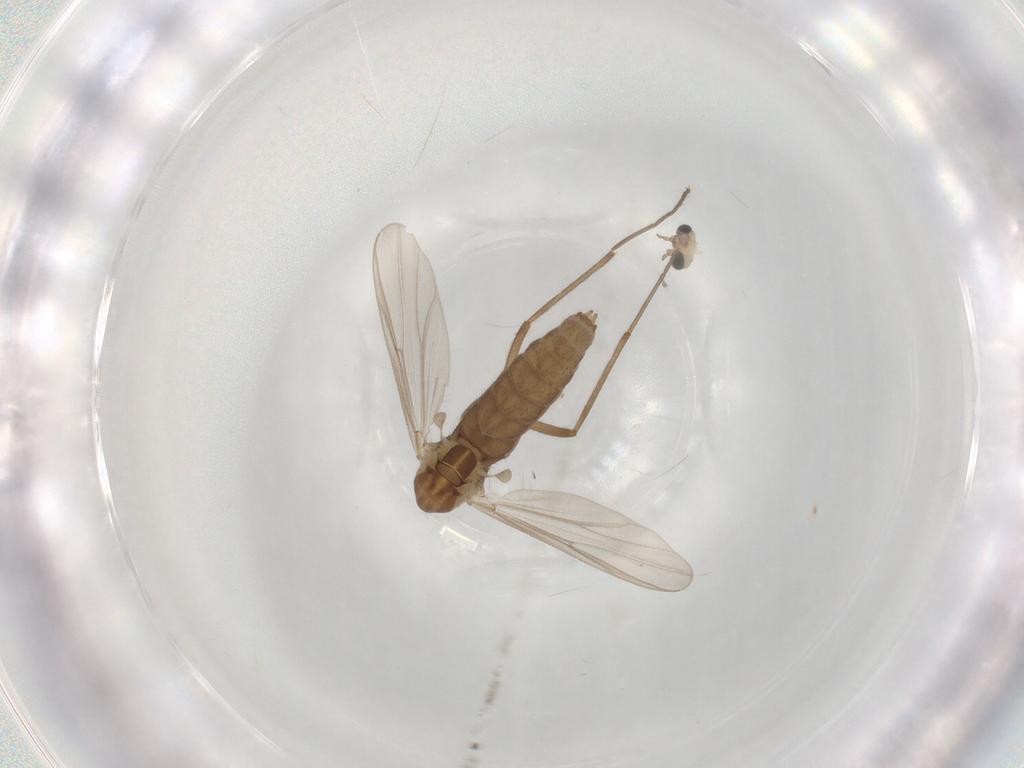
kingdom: Animalia
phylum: Arthropoda
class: Insecta
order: Diptera
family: Chironomidae
